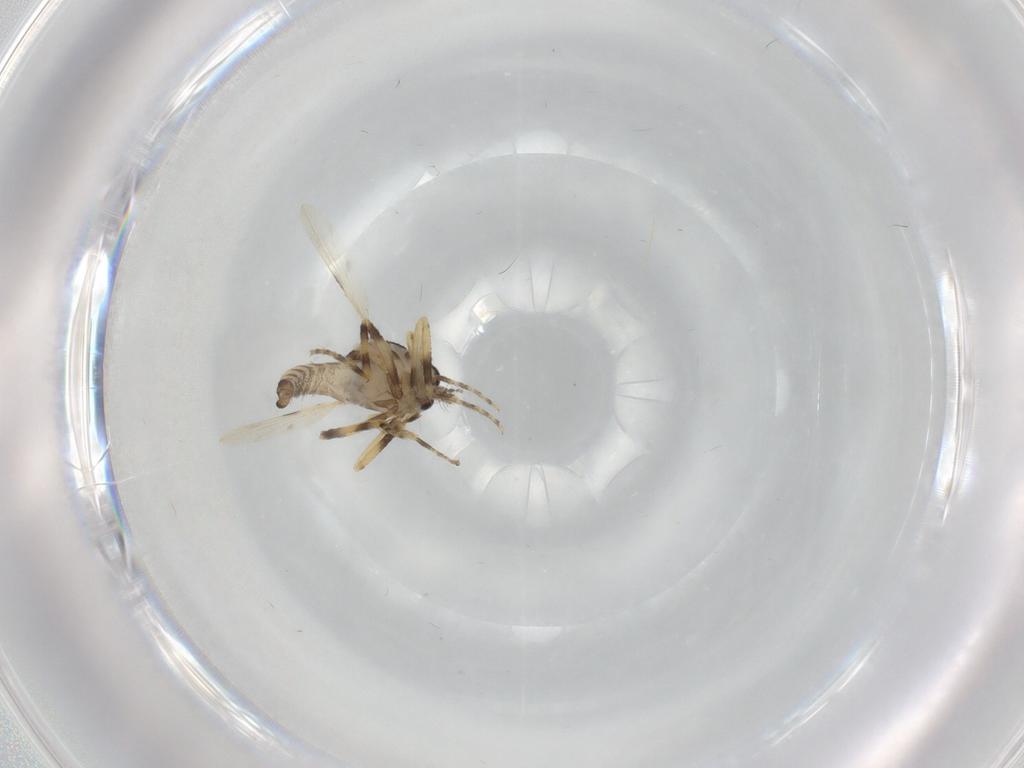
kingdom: Animalia
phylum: Arthropoda
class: Insecta
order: Diptera
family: Ceratopogonidae
